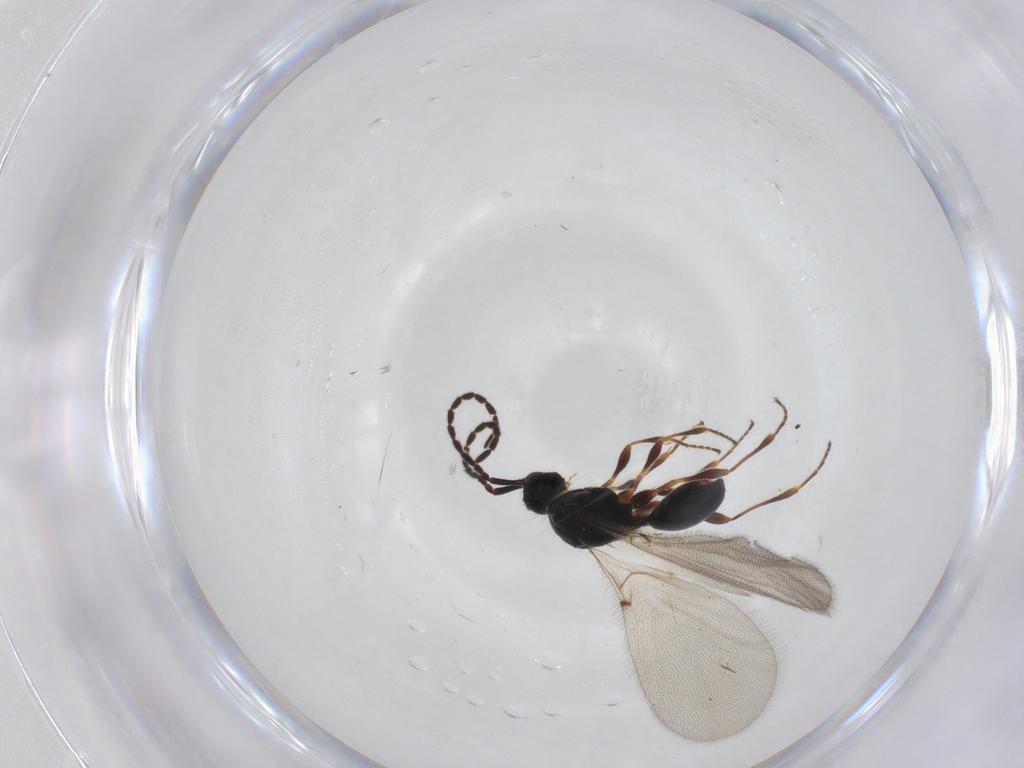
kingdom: Animalia
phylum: Arthropoda
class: Insecta
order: Hymenoptera
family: Diapriidae
